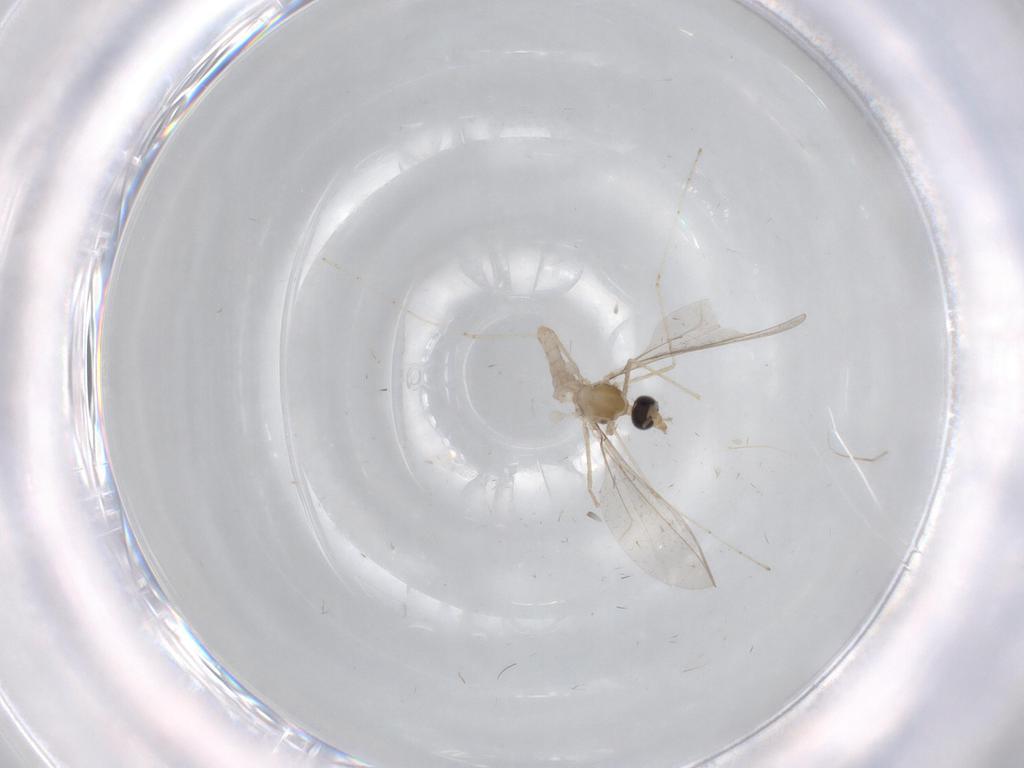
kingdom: Animalia
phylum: Arthropoda
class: Insecta
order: Diptera
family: Cecidomyiidae
